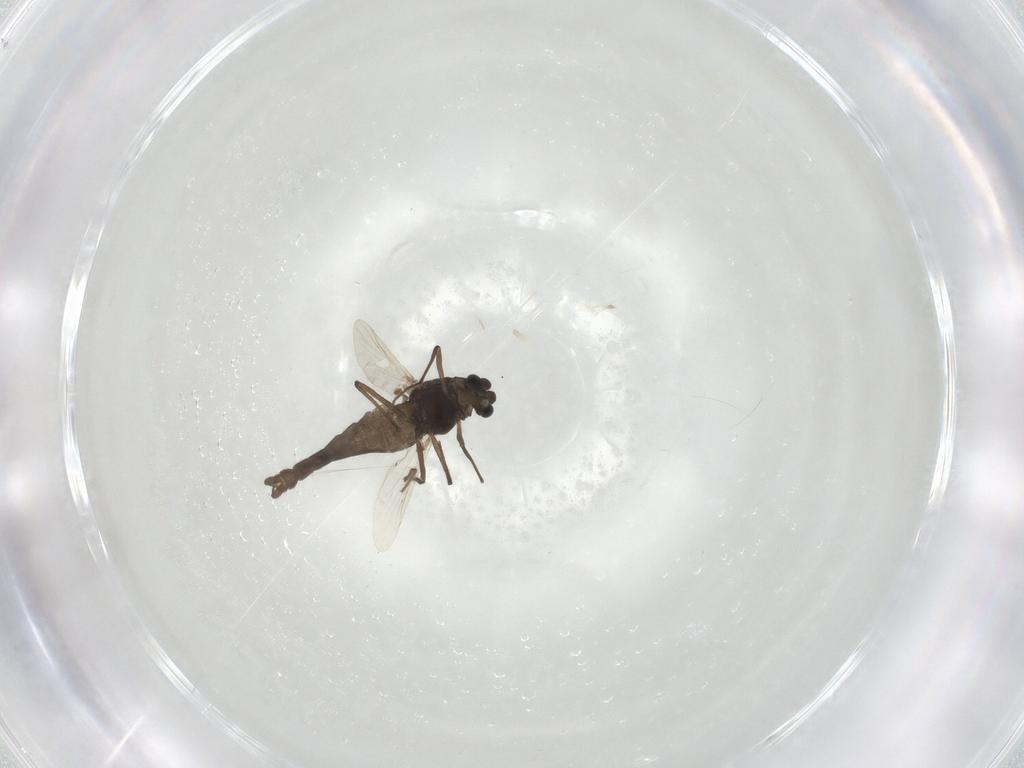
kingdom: Animalia
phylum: Arthropoda
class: Insecta
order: Diptera
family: Chironomidae
